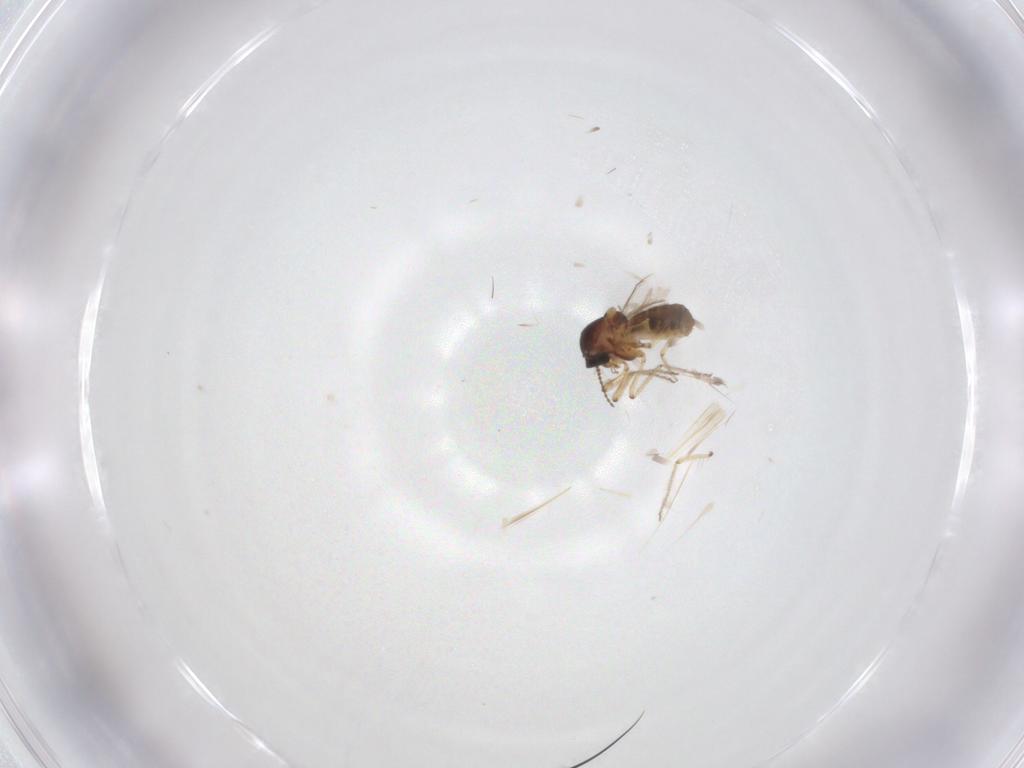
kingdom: Animalia
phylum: Arthropoda
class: Insecta
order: Diptera
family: Ceratopogonidae
